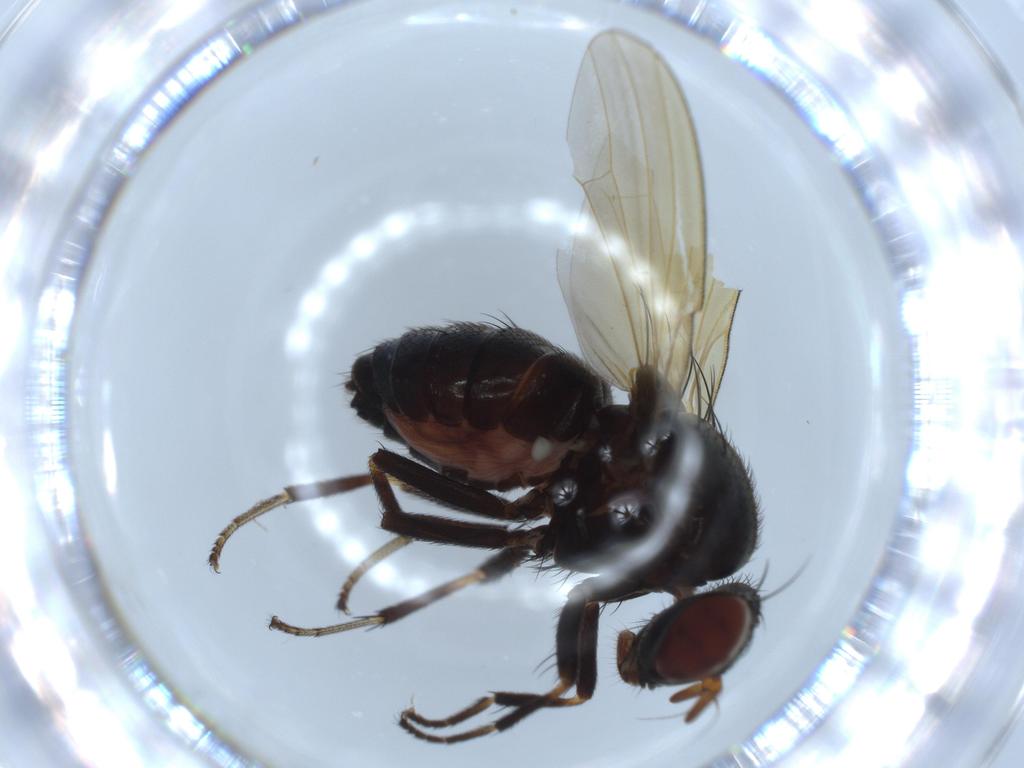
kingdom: Animalia
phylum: Arthropoda
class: Insecta
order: Diptera
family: Lauxaniidae
